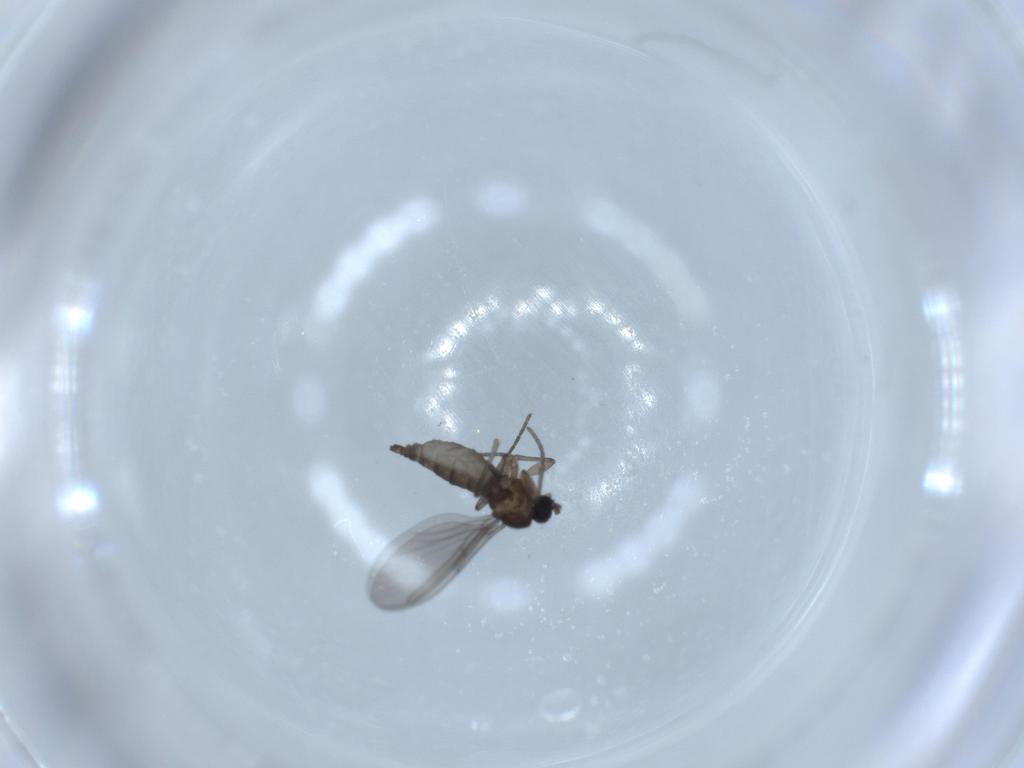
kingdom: Animalia
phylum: Arthropoda
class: Insecta
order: Diptera
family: Chironomidae
